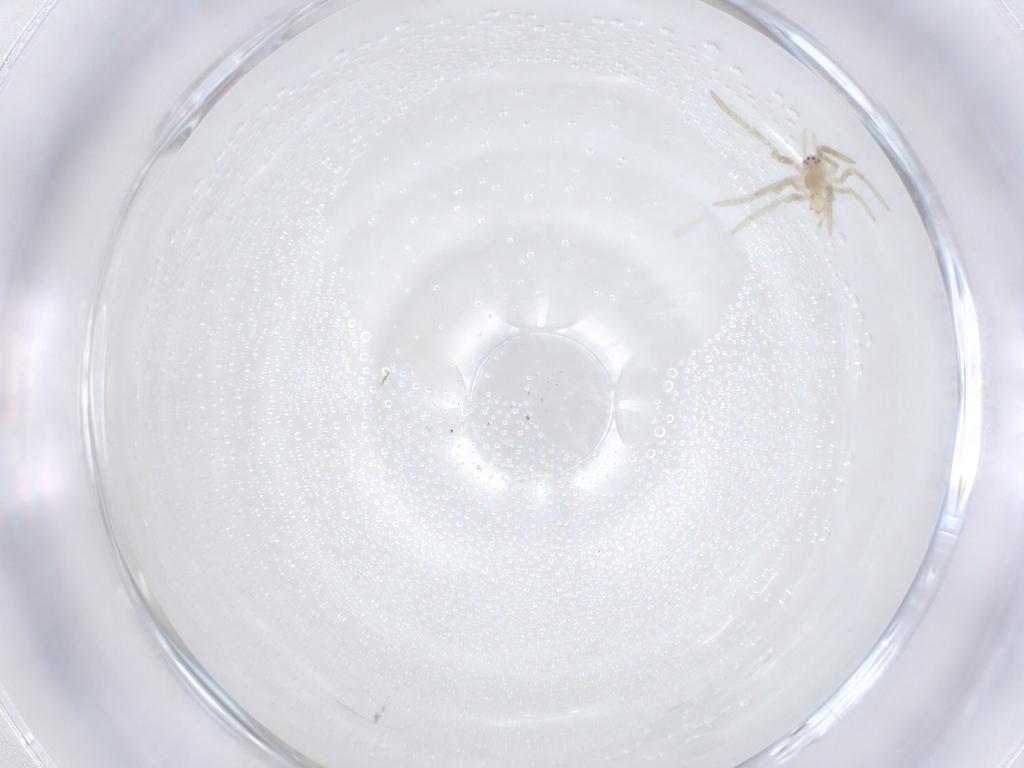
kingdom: Animalia
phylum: Arthropoda
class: Arachnida
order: Araneae
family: Theridiidae
